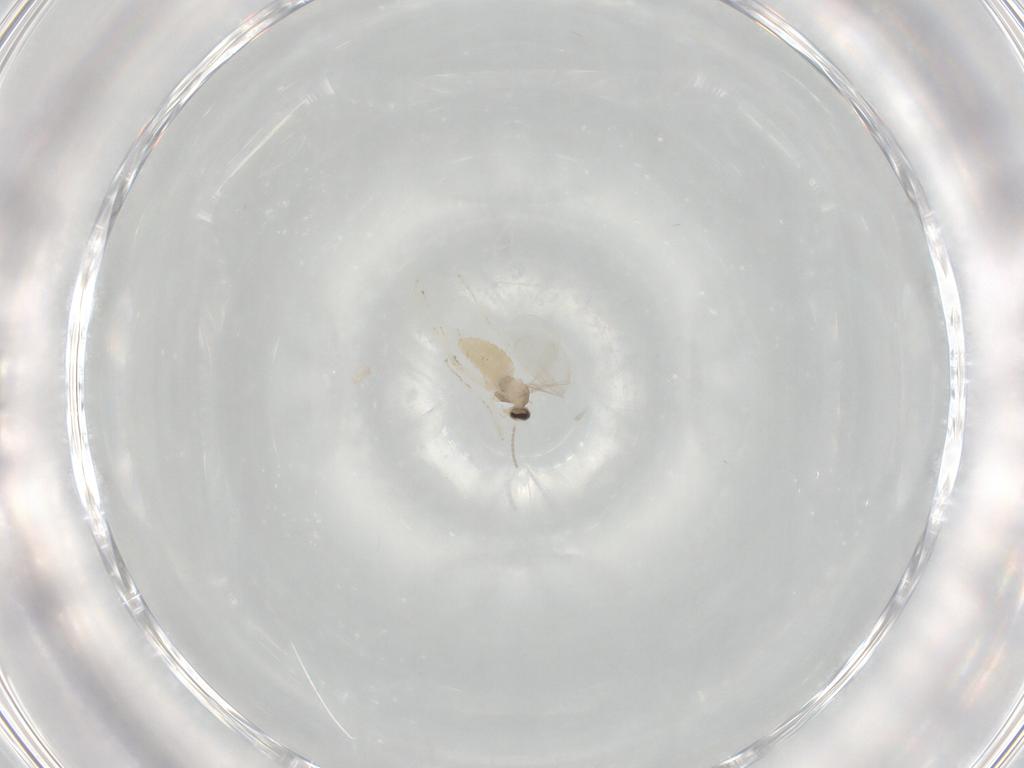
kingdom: Animalia
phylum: Arthropoda
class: Insecta
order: Diptera
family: Cecidomyiidae
